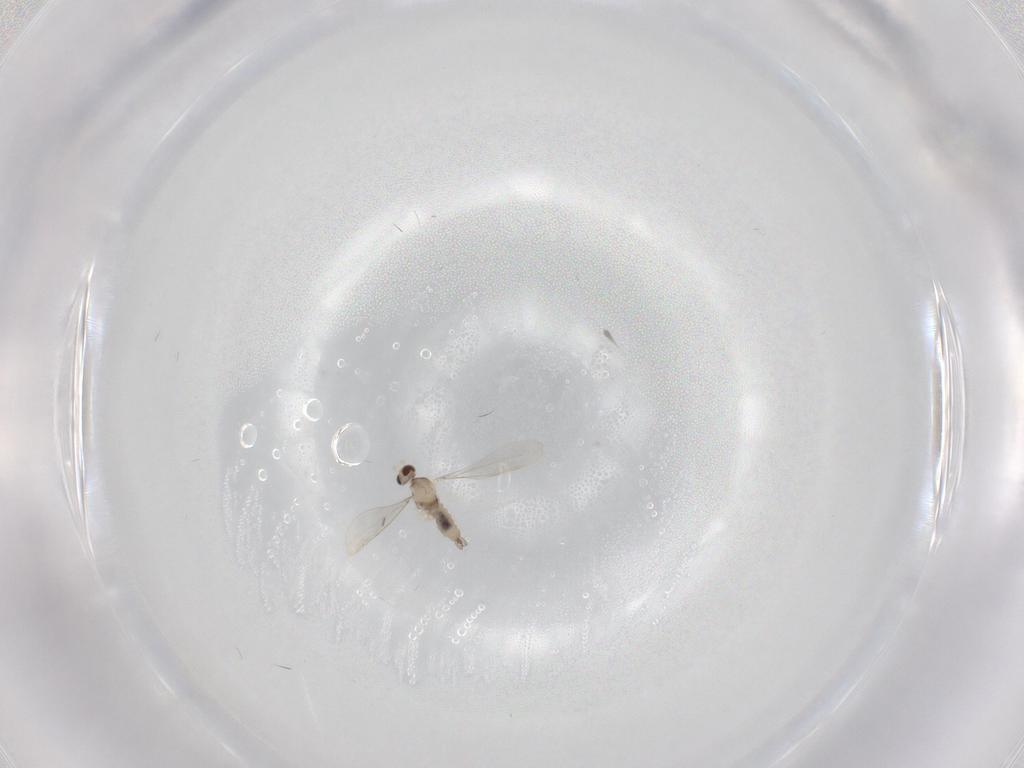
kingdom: Animalia
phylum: Arthropoda
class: Insecta
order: Diptera
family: Cecidomyiidae
